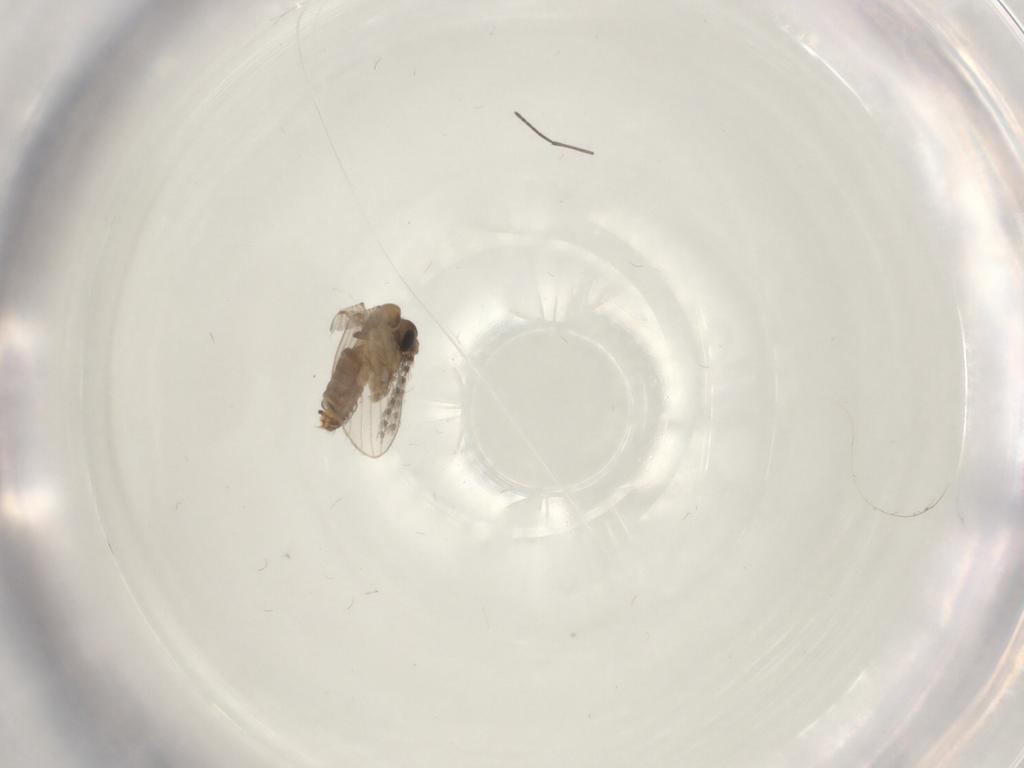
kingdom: Animalia
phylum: Arthropoda
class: Insecta
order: Diptera
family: Sciaridae
